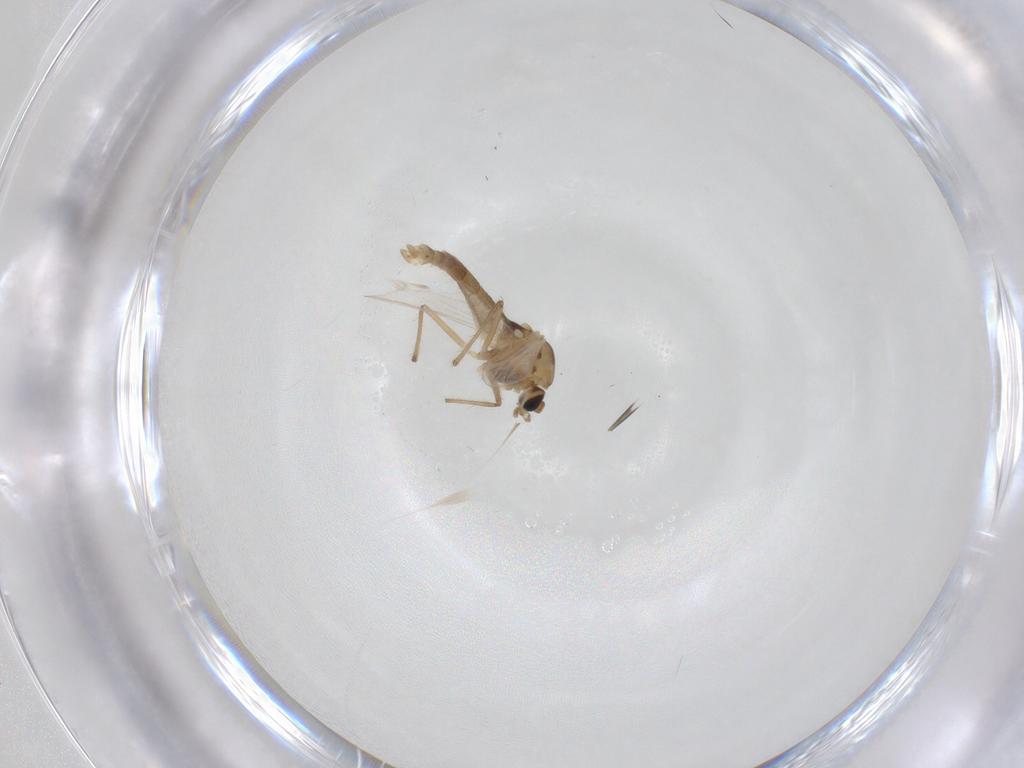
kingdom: Animalia
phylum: Arthropoda
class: Insecta
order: Diptera
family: Chironomidae
